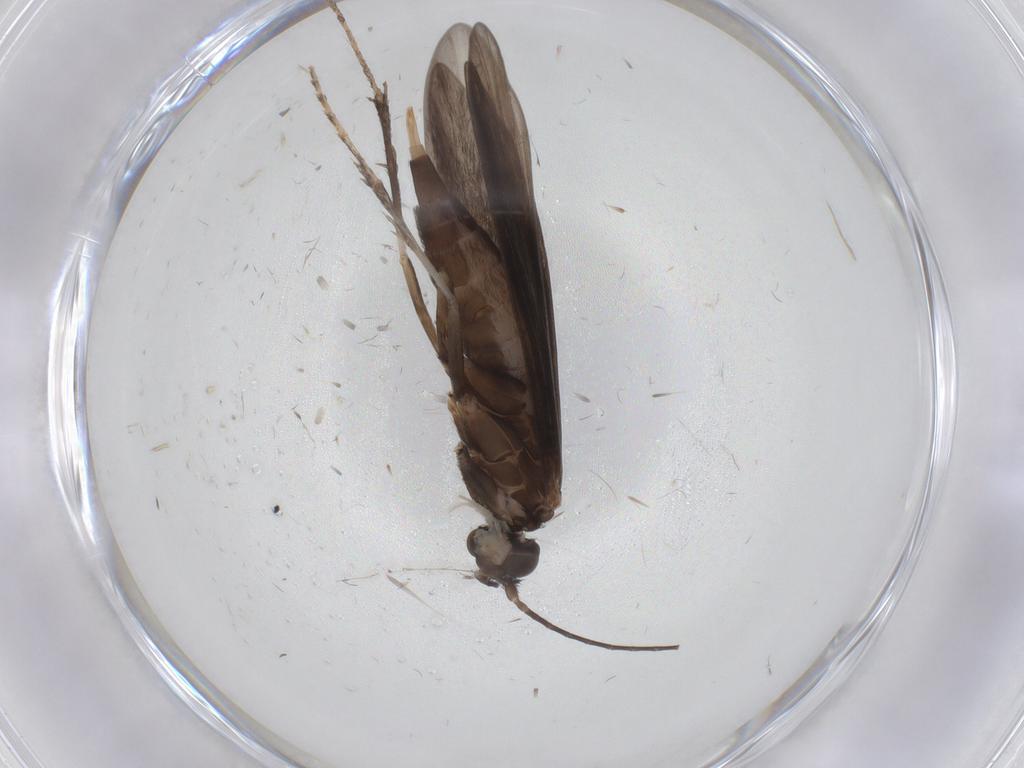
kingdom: Animalia
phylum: Arthropoda
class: Insecta
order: Trichoptera
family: Xiphocentronidae
